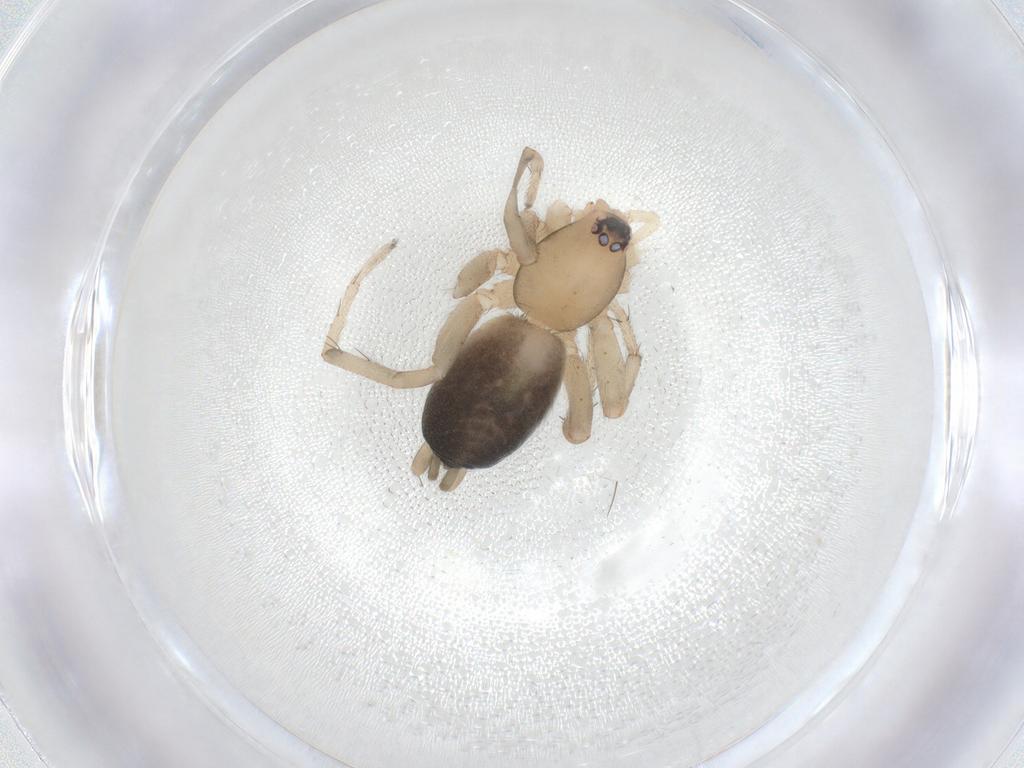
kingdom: Animalia
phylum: Arthropoda
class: Arachnida
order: Araneae
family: Gnaphosidae
